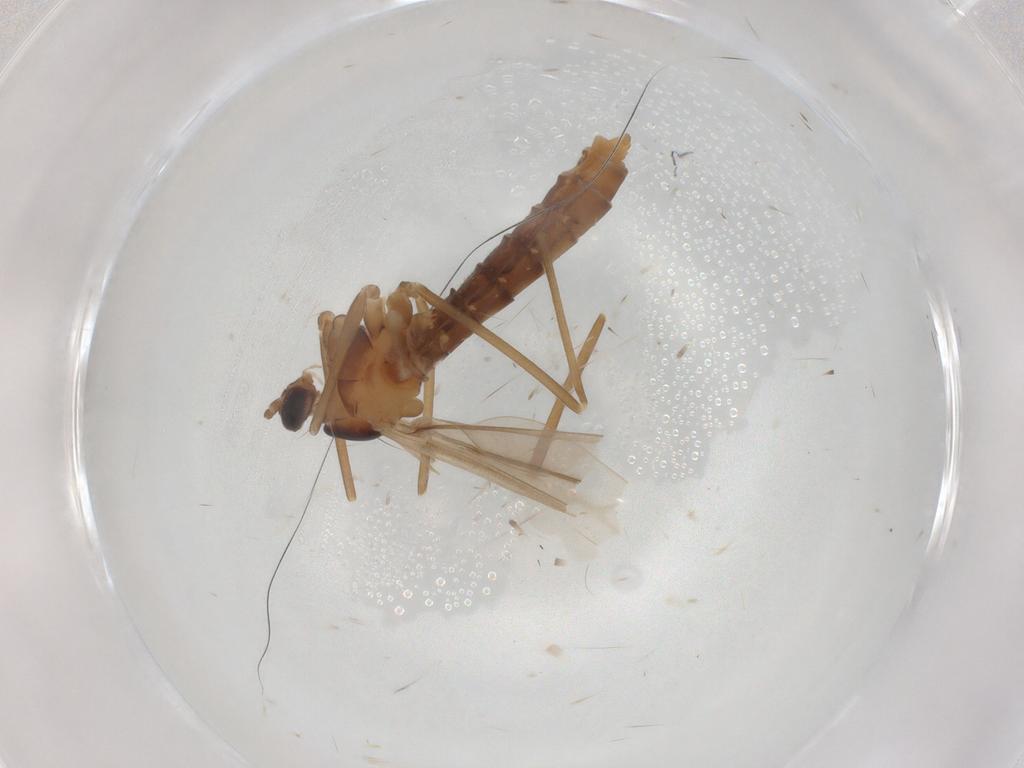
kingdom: Animalia
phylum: Arthropoda
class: Insecta
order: Diptera
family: Cecidomyiidae
